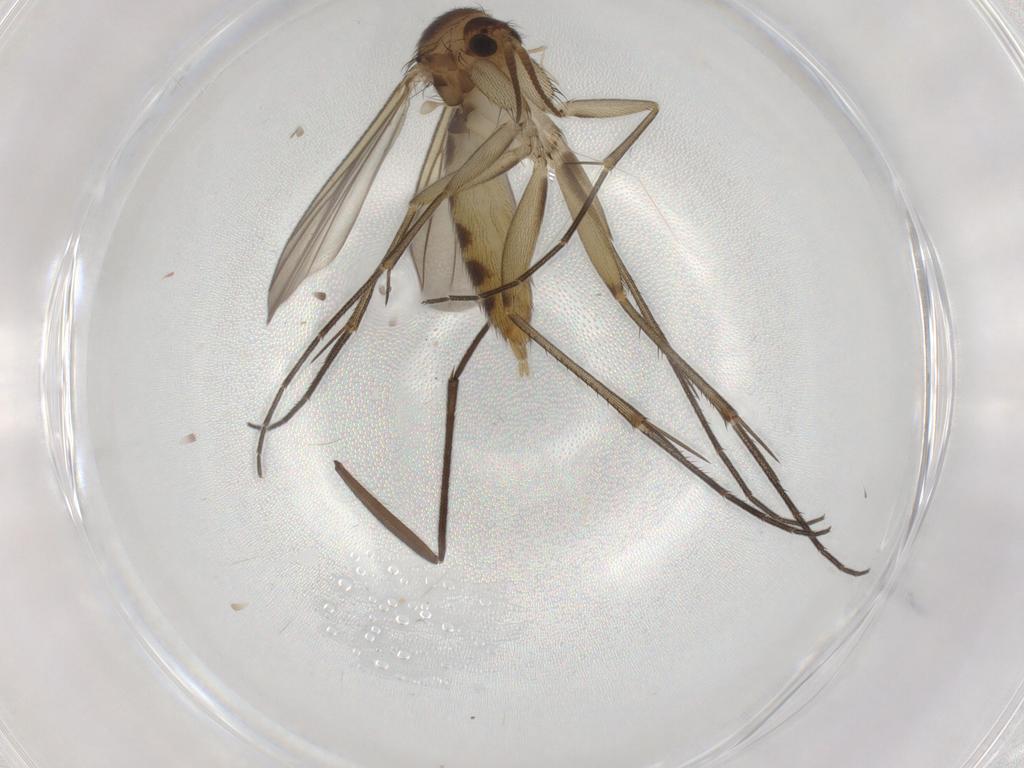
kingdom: Animalia
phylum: Arthropoda
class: Insecta
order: Diptera
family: Mycetophilidae
